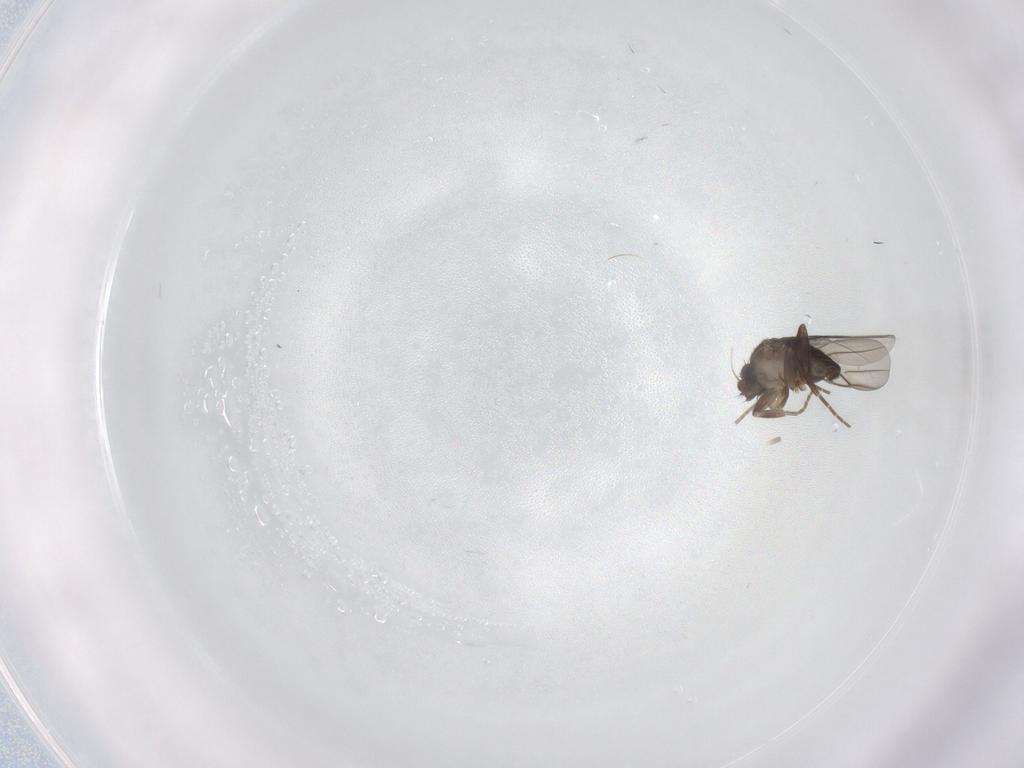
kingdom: Animalia
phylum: Arthropoda
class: Insecta
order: Diptera
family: Phoridae
